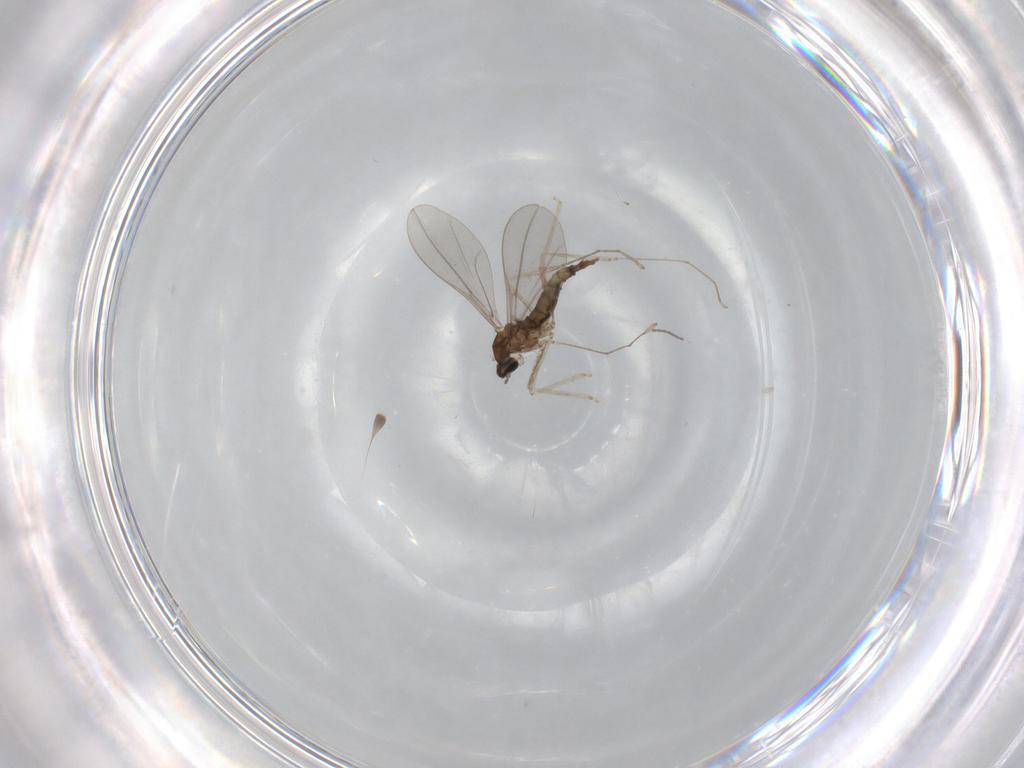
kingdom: Animalia
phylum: Arthropoda
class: Insecta
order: Diptera
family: Cecidomyiidae
